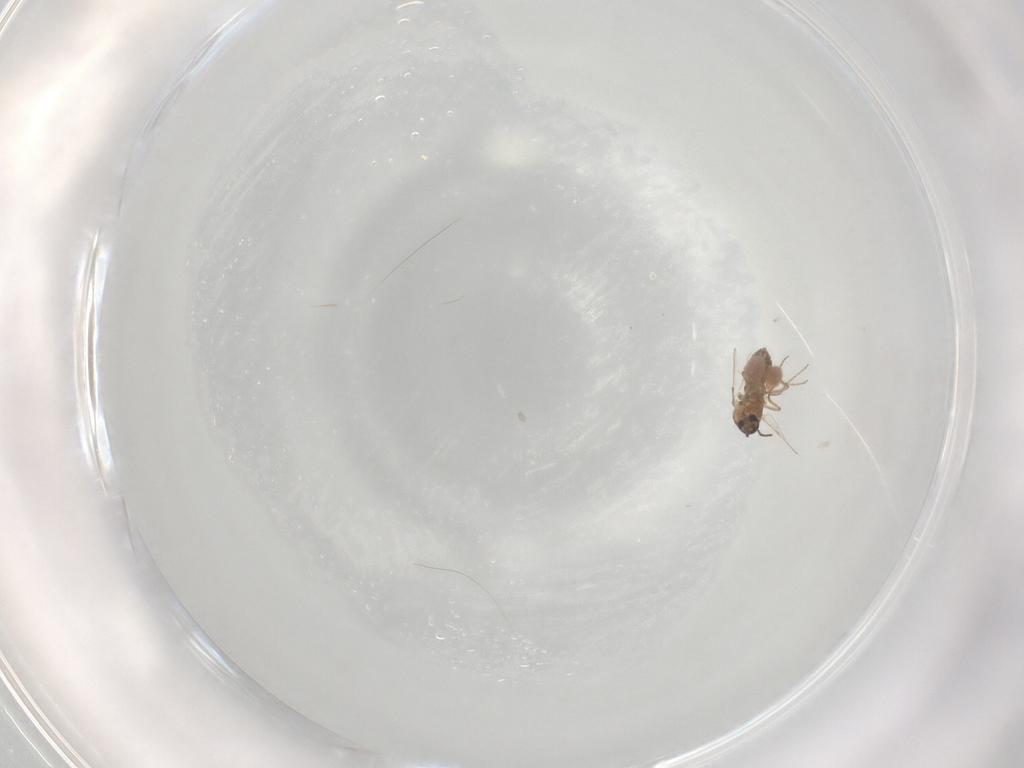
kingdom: Animalia
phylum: Arthropoda
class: Insecta
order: Diptera
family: Ceratopogonidae
